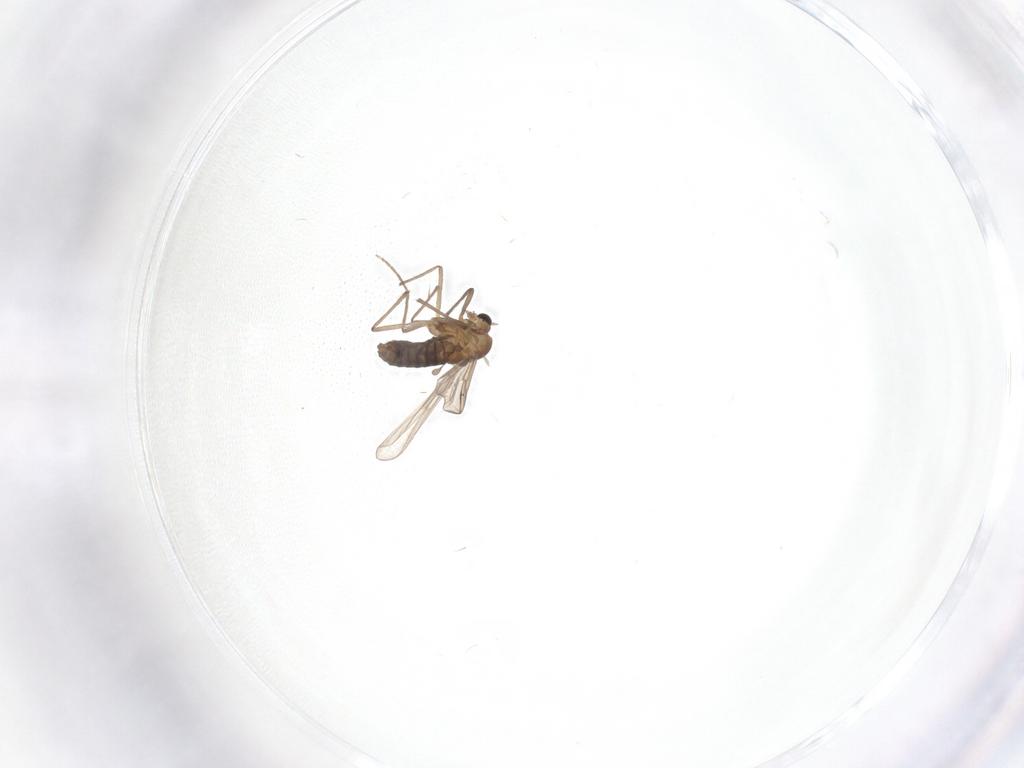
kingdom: Animalia
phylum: Arthropoda
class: Insecta
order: Diptera
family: Chironomidae
